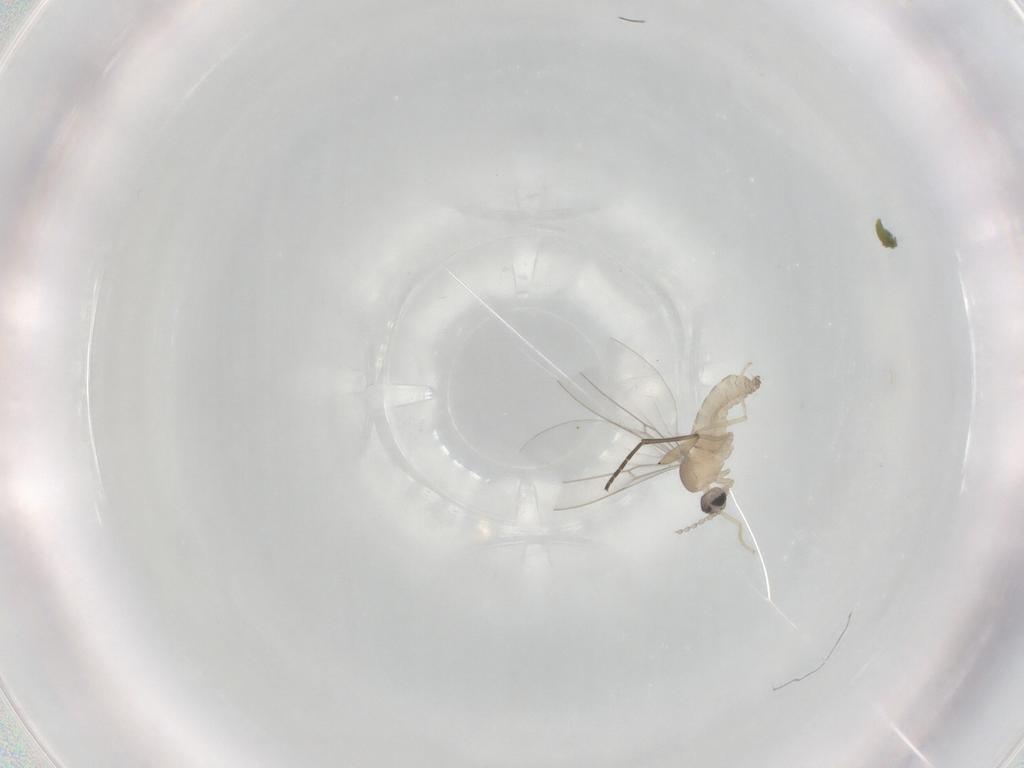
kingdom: Animalia
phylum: Arthropoda
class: Insecta
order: Diptera
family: Cecidomyiidae
